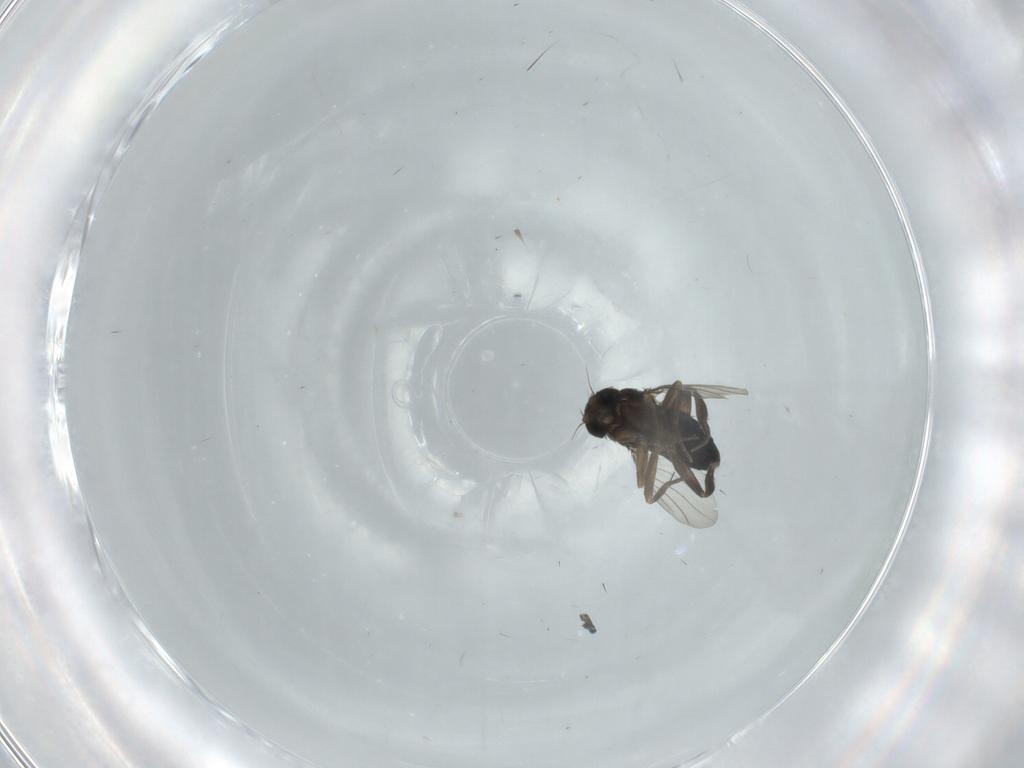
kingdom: Animalia
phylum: Arthropoda
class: Insecta
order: Diptera
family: Phoridae
